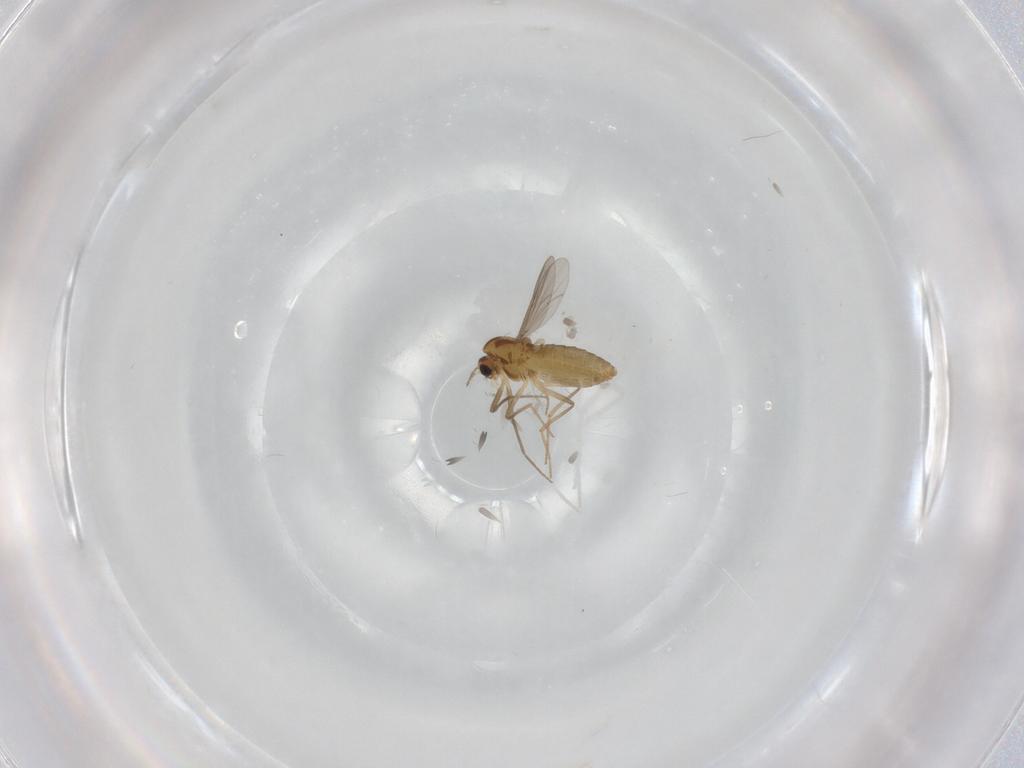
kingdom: Animalia
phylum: Arthropoda
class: Insecta
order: Diptera
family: Chironomidae
